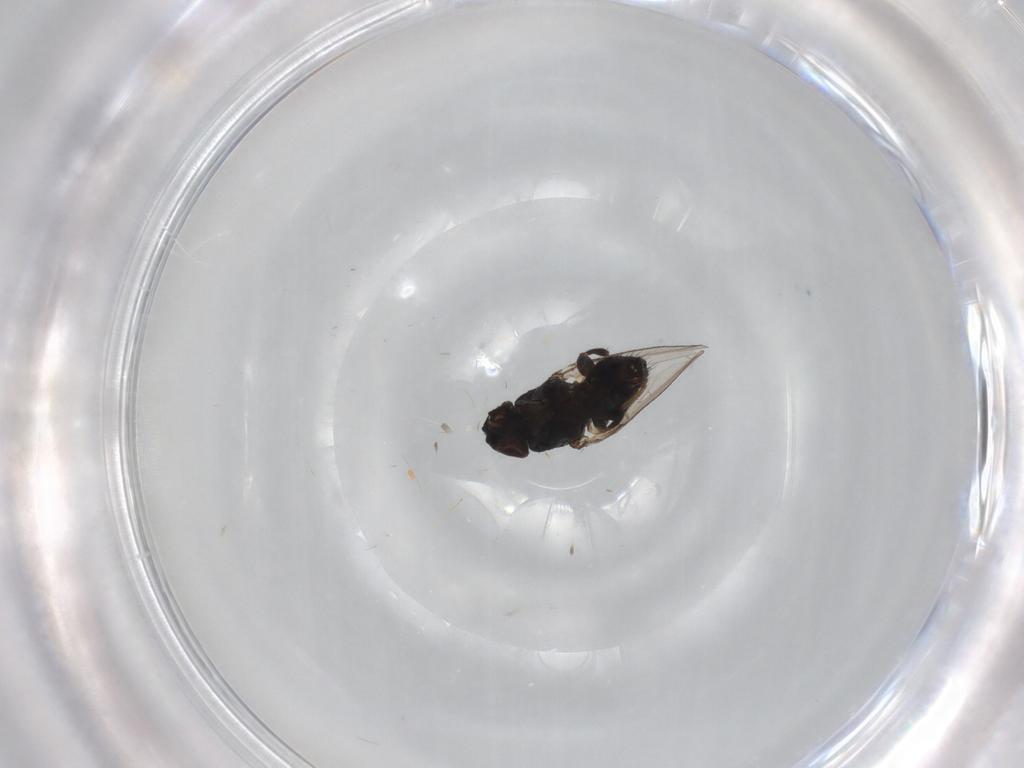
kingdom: Animalia
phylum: Arthropoda
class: Insecta
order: Diptera
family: Milichiidae
